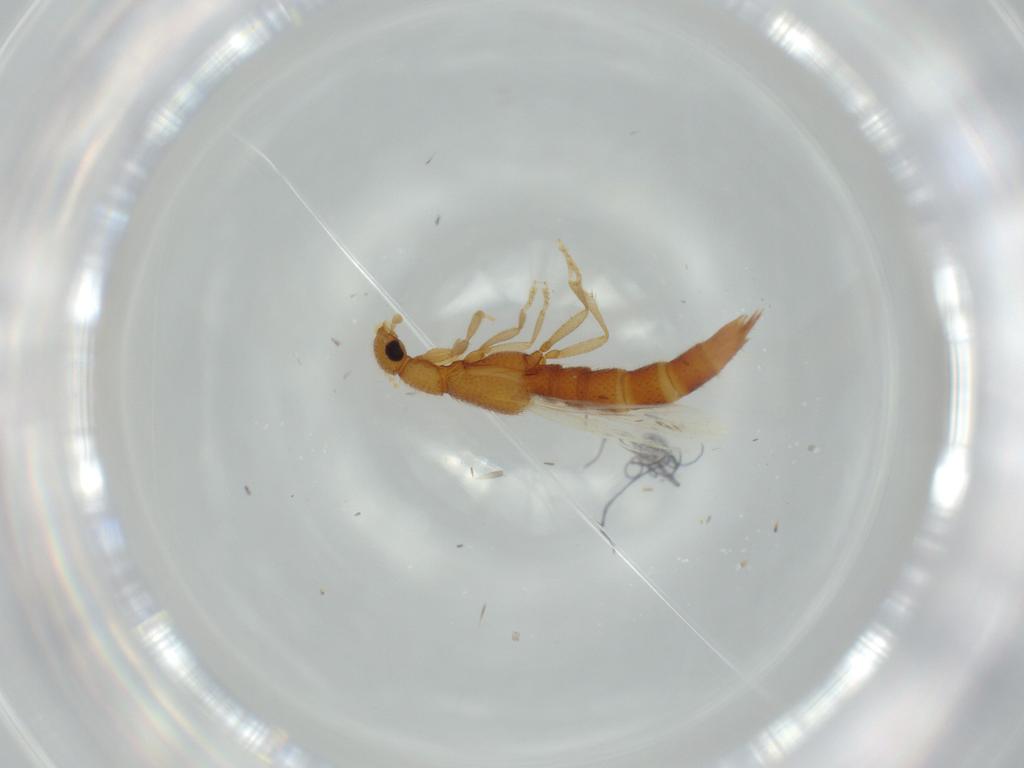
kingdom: Animalia
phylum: Arthropoda
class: Insecta
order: Coleoptera
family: Staphylinidae
